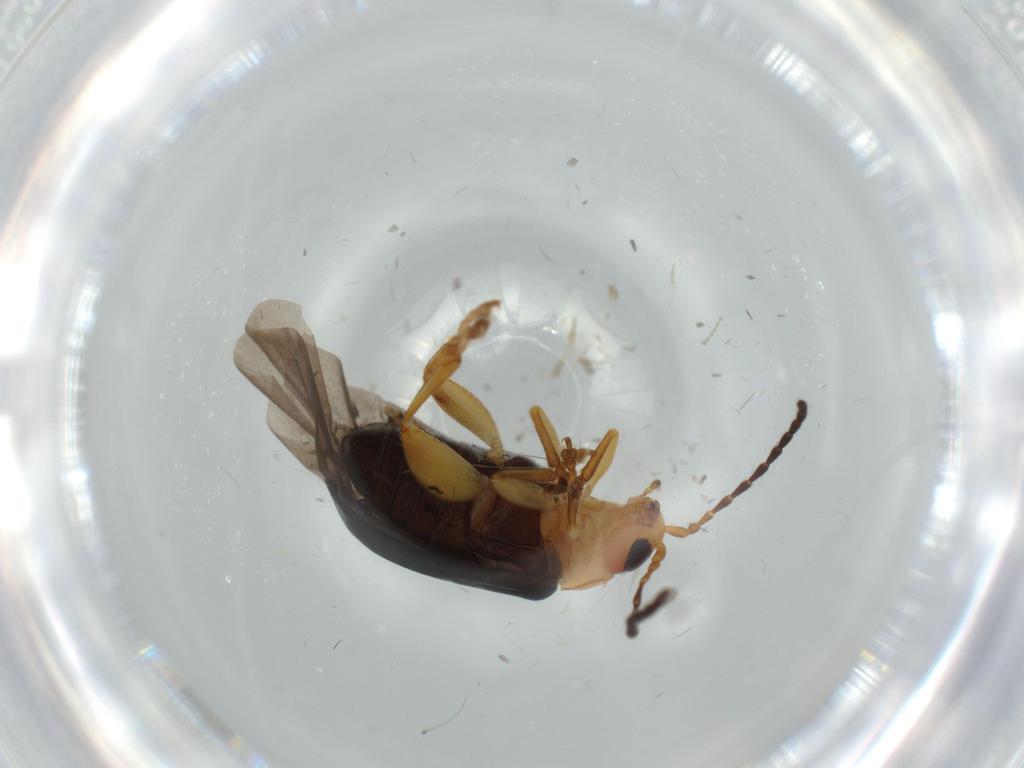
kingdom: Animalia
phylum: Arthropoda
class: Insecta
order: Coleoptera
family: Chrysomelidae
